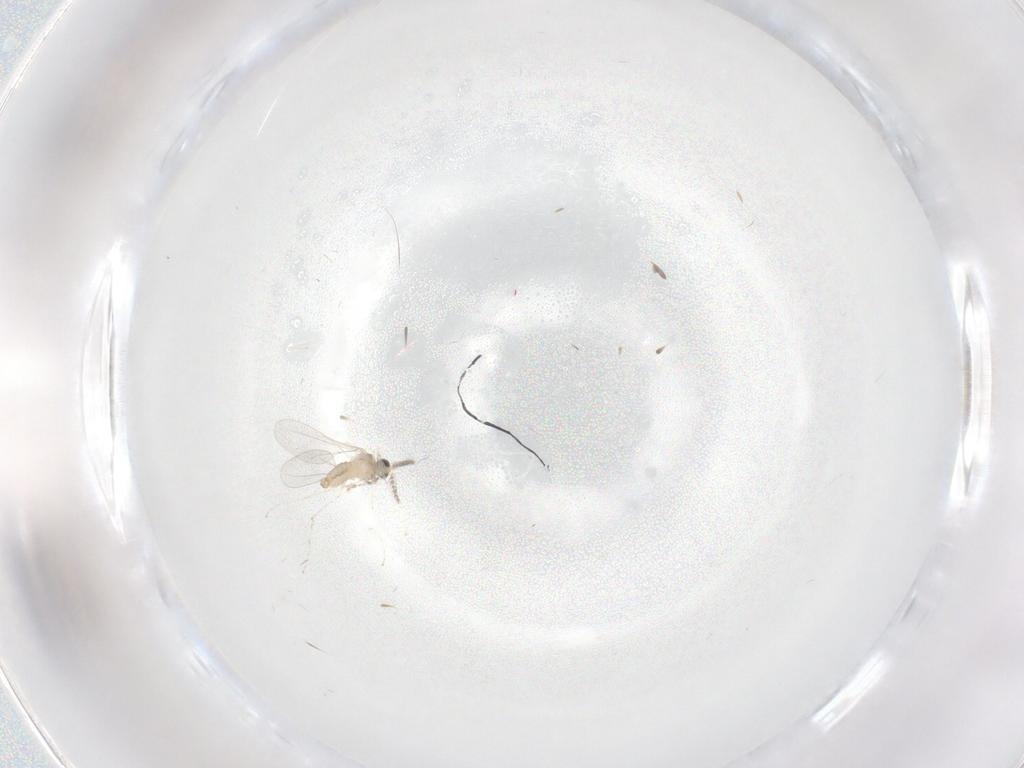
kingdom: Animalia
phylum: Arthropoda
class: Insecta
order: Diptera
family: Cecidomyiidae
